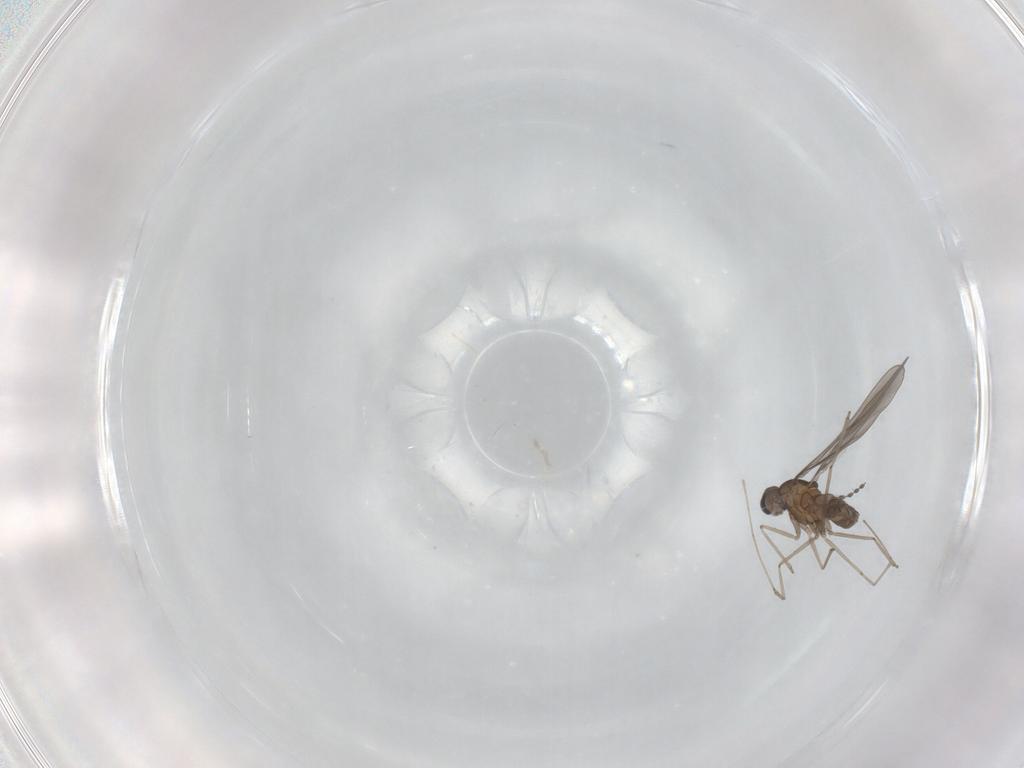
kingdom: Animalia
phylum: Arthropoda
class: Insecta
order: Diptera
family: Cecidomyiidae
